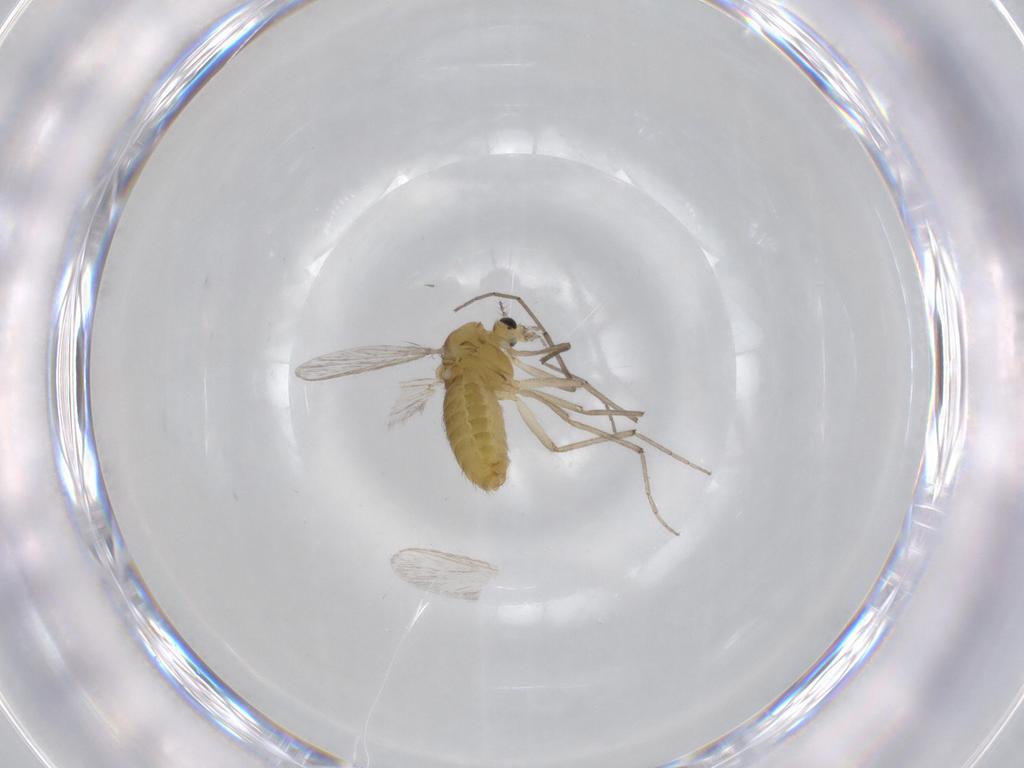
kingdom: Animalia
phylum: Arthropoda
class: Insecta
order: Diptera
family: Chironomidae
